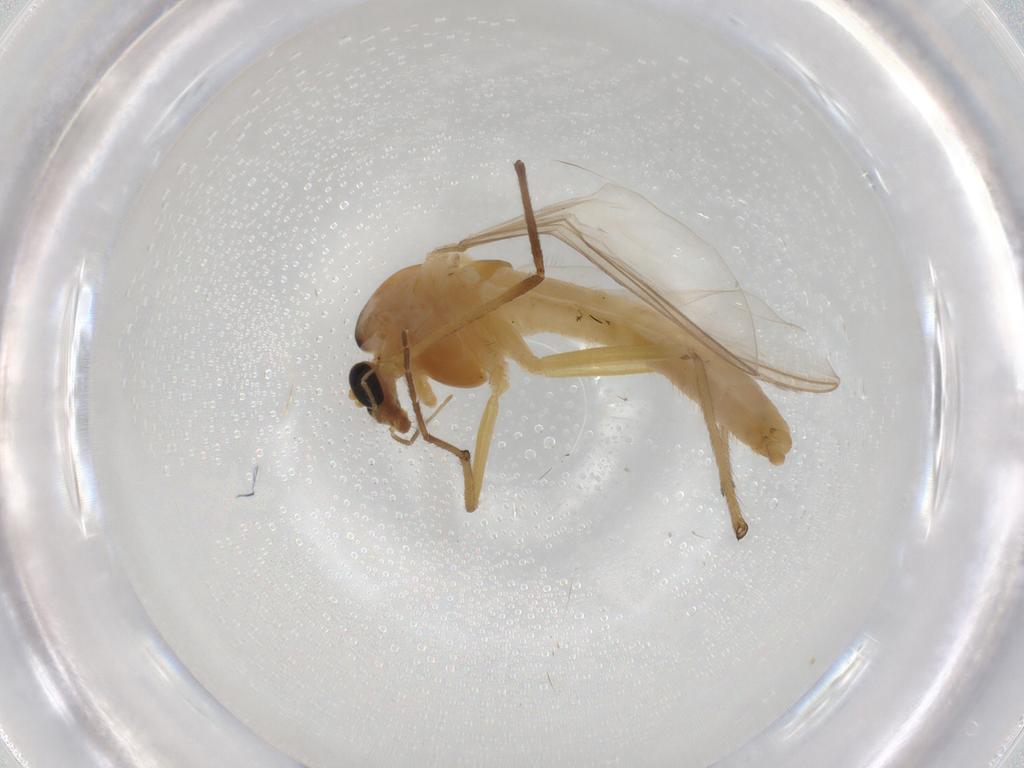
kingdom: Animalia
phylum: Arthropoda
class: Insecta
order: Diptera
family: Chironomidae
